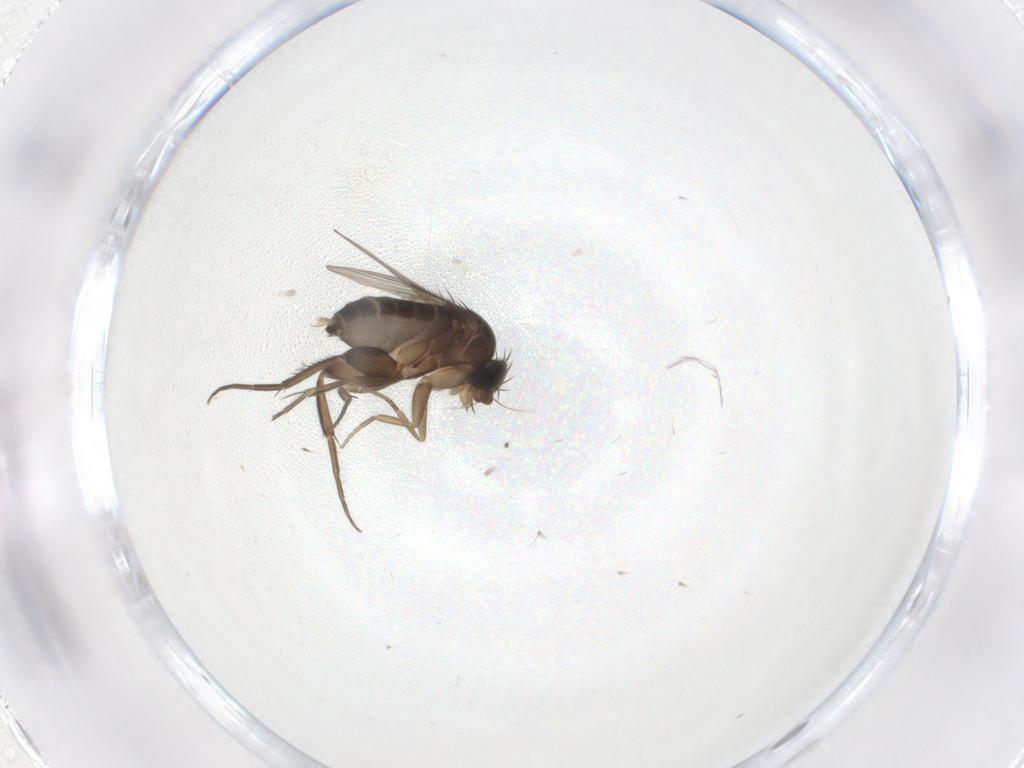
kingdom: Animalia
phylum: Arthropoda
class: Insecta
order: Diptera
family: Phoridae
